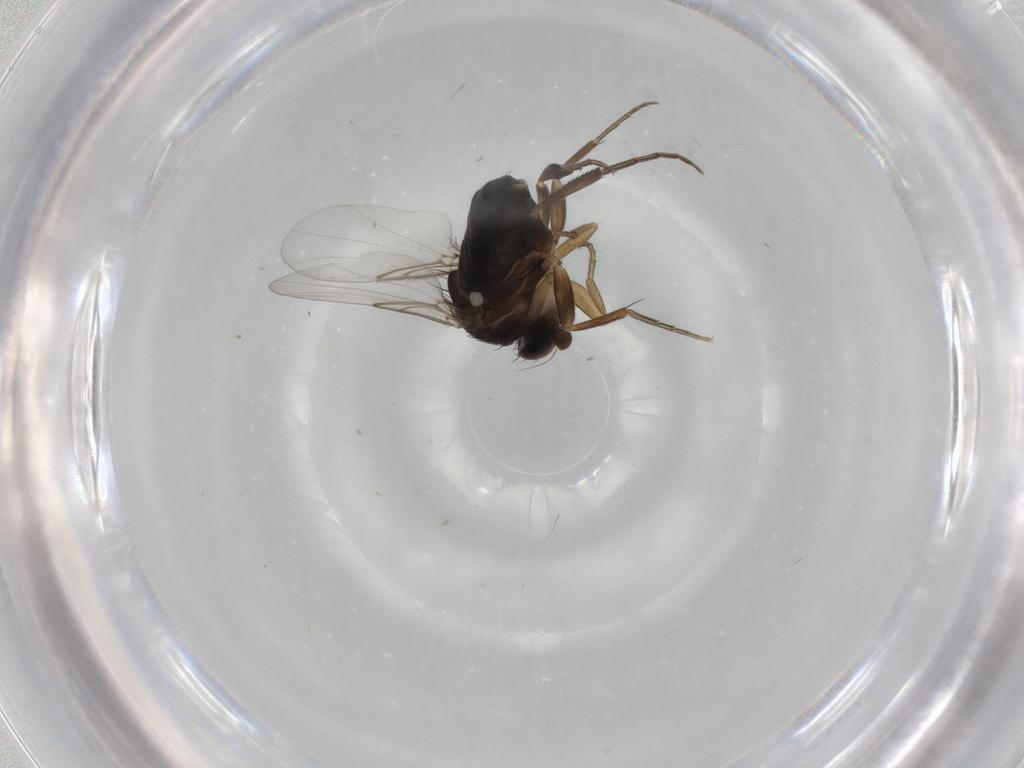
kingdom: Animalia
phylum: Arthropoda
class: Insecta
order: Diptera
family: Phoridae
